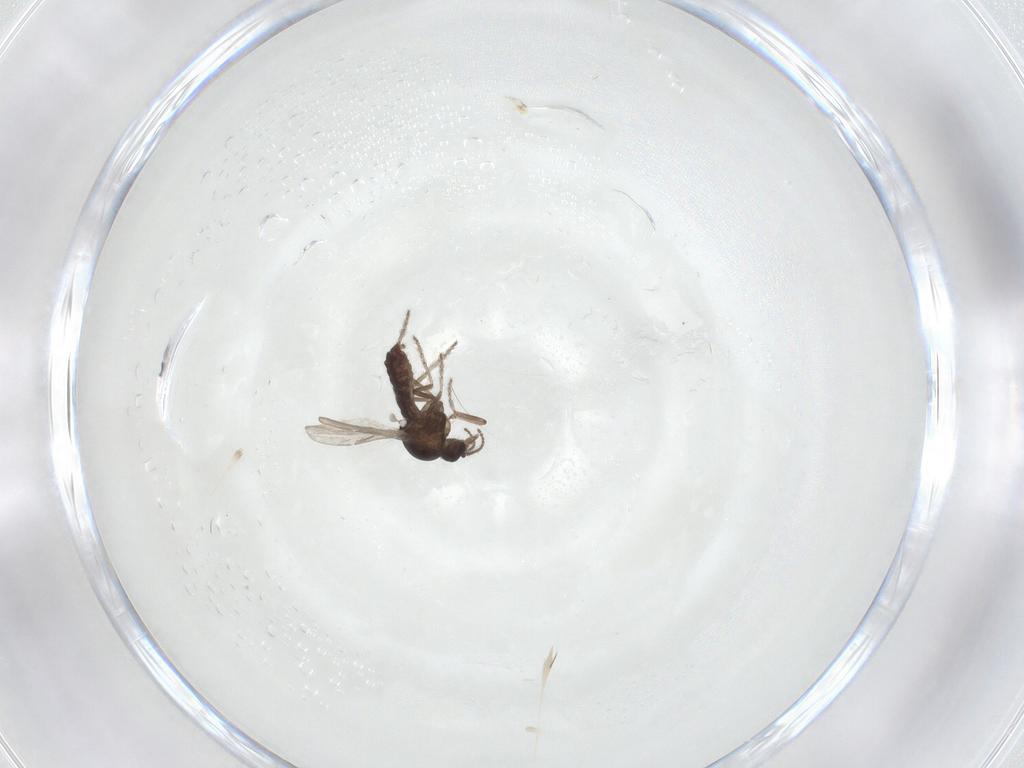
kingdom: Animalia
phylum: Arthropoda
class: Insecta
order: Diptera
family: Ceratopogonidae
